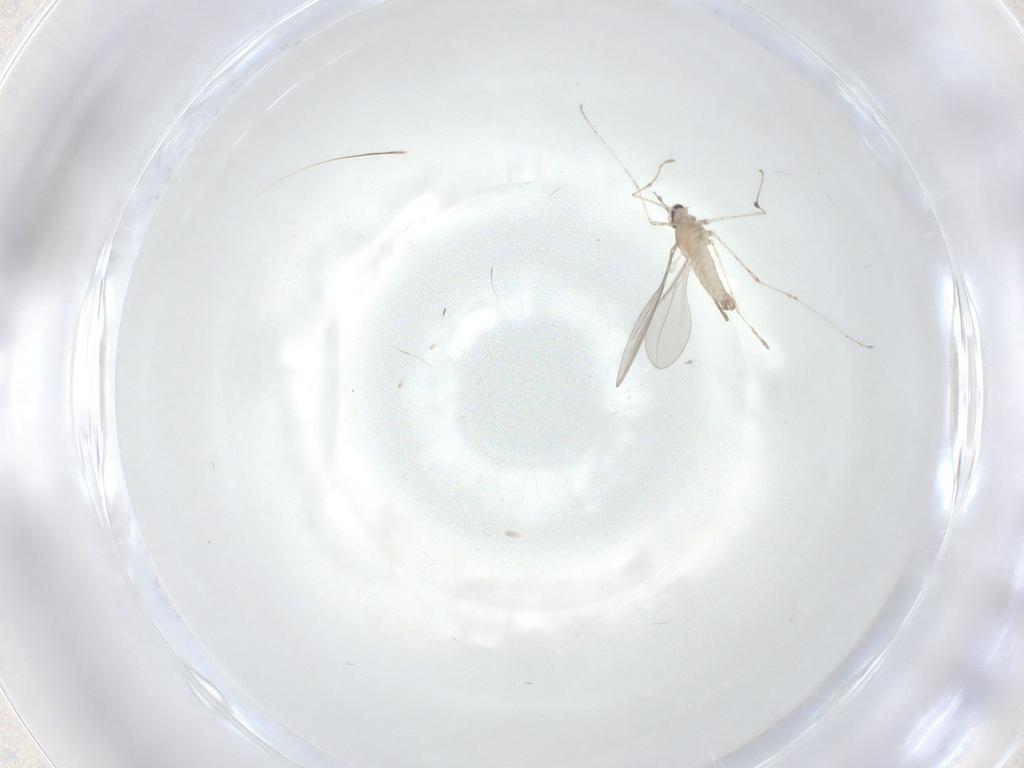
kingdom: Animalia
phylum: Arthropoda
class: Insecta
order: Diptera
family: Cecidomyiidae
